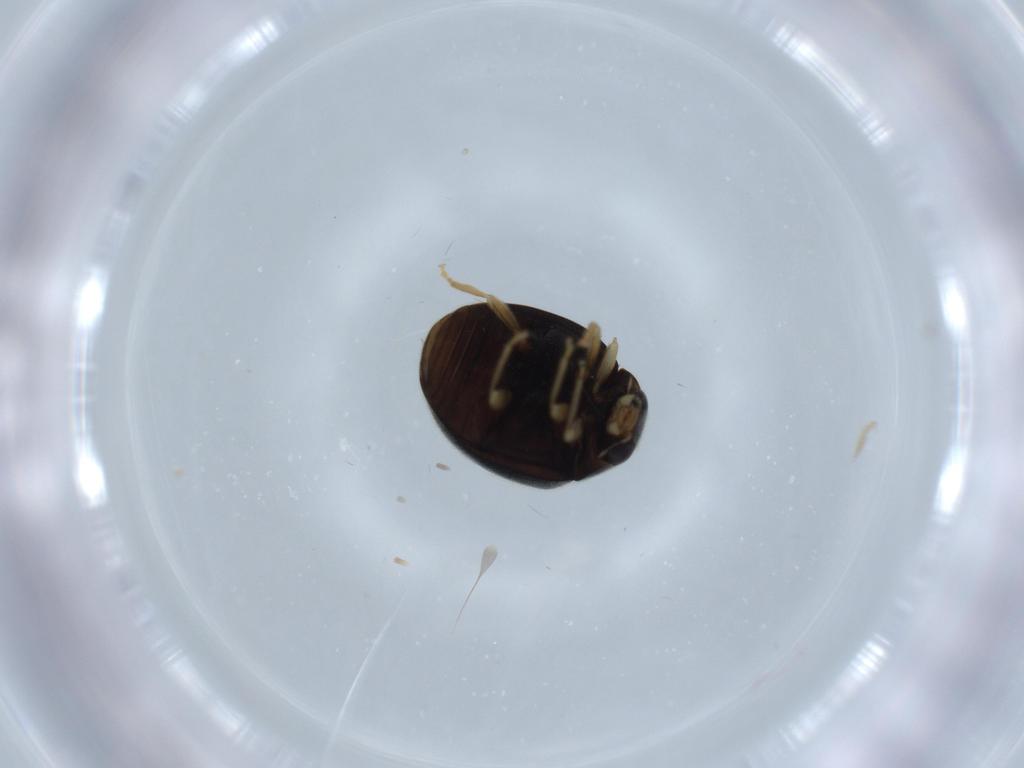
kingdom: Animalia
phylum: Arthropoda
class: Insecta
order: Coleoptera
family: Coccinellidae
